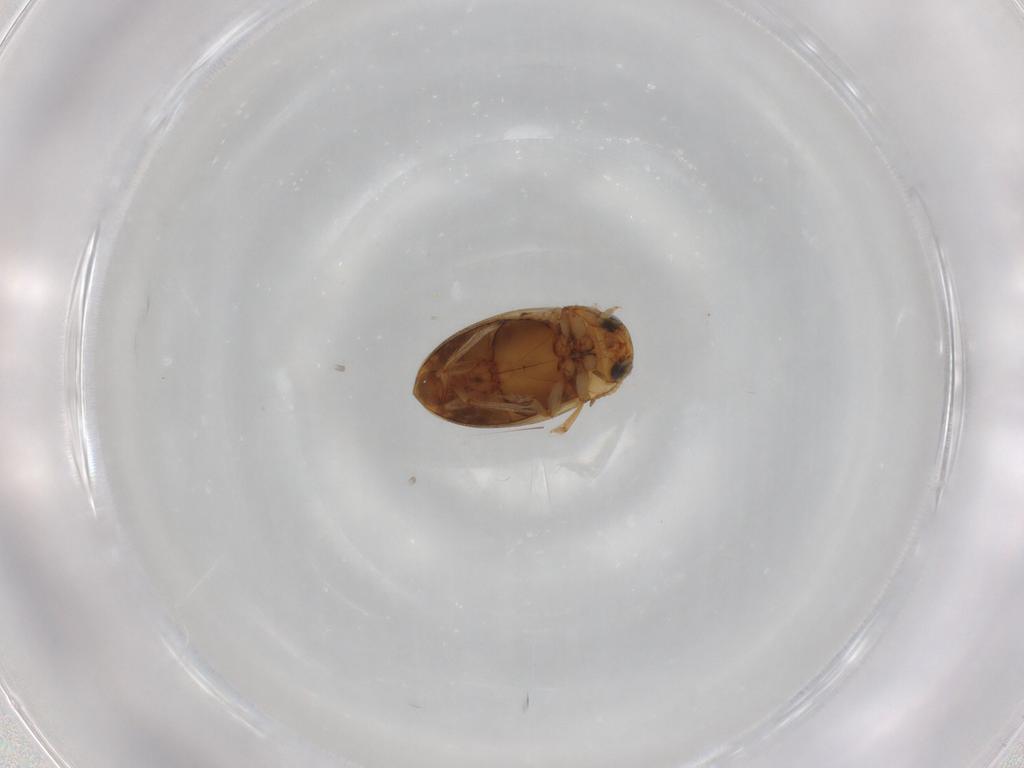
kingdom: Animalia
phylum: Arthropoda
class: Insecta
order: Coleoptera
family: Dytiscidae
